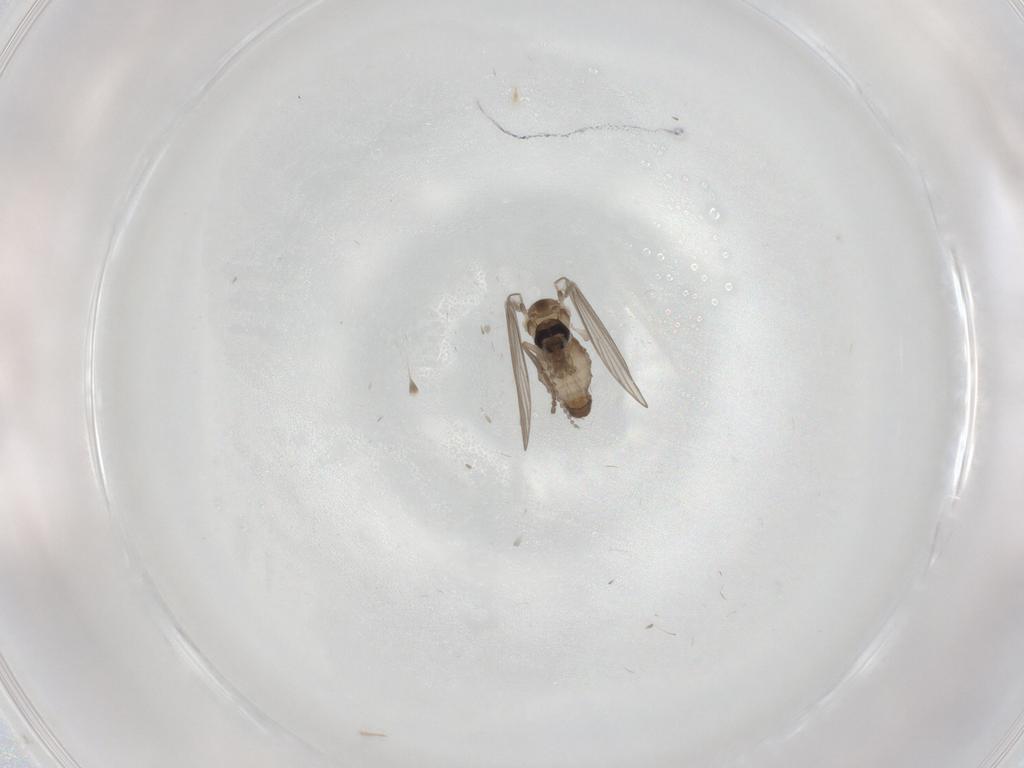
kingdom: Animalia
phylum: Arthropoda
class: Insecta
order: Diptera
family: Psychodidae
